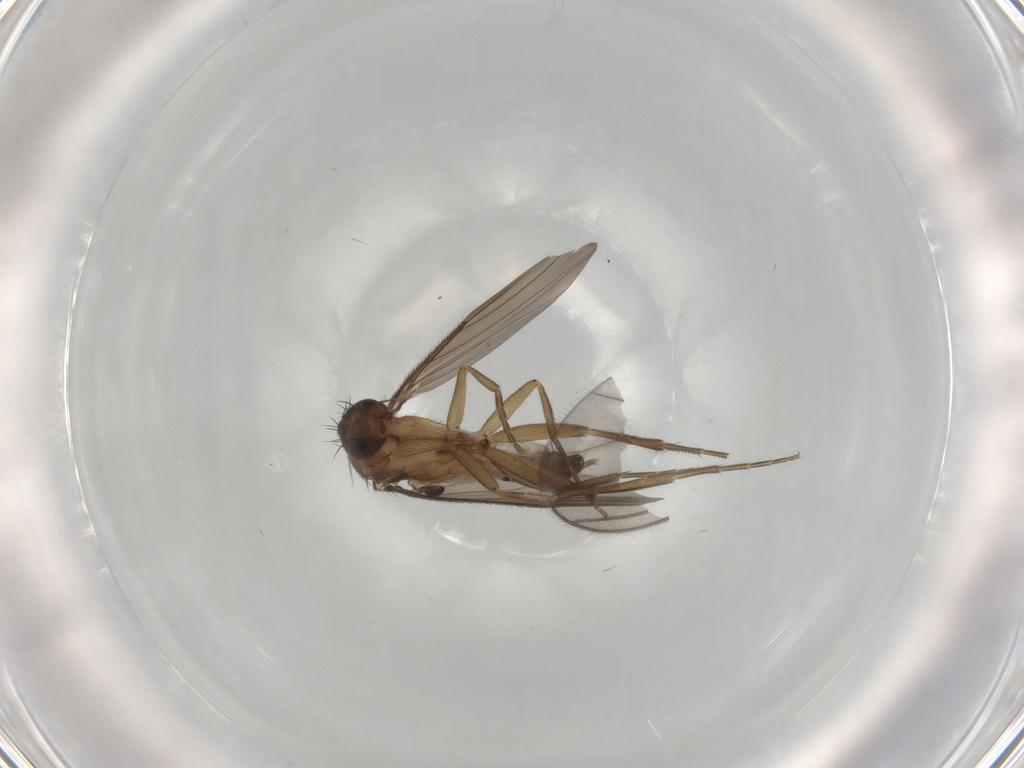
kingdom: Animalia
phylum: Arthropoda
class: Insecta
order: Diptera
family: Phoridae
